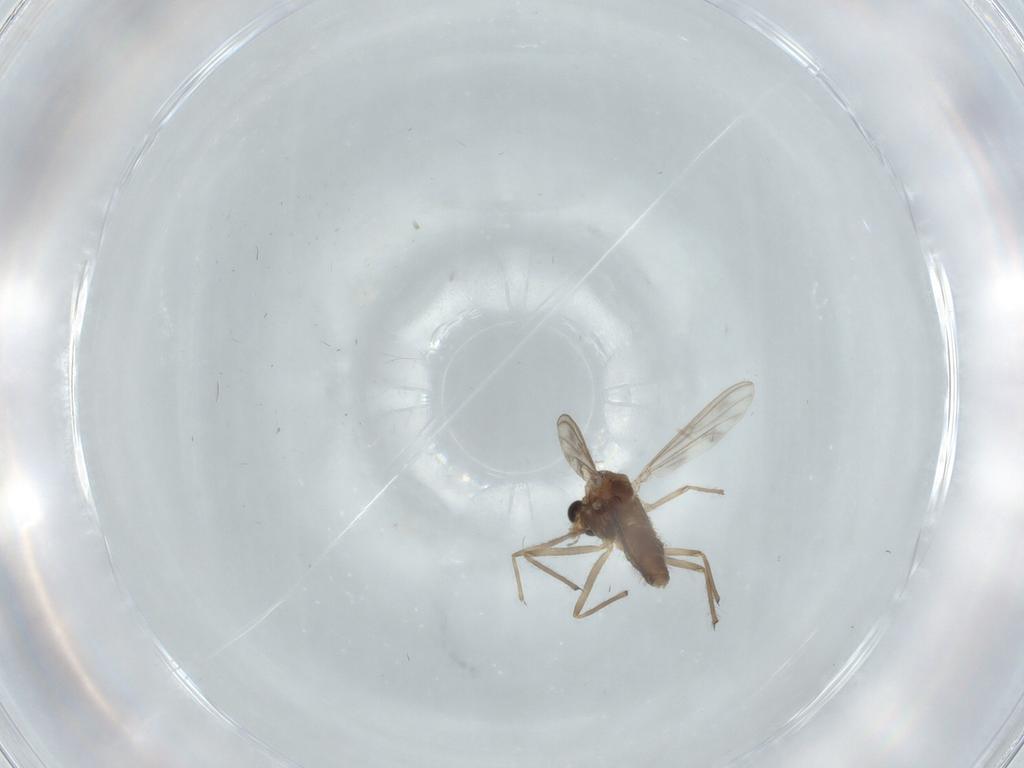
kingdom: Animalia
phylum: Arthropoda
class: Insecta
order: Diptera
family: Chironomidae
